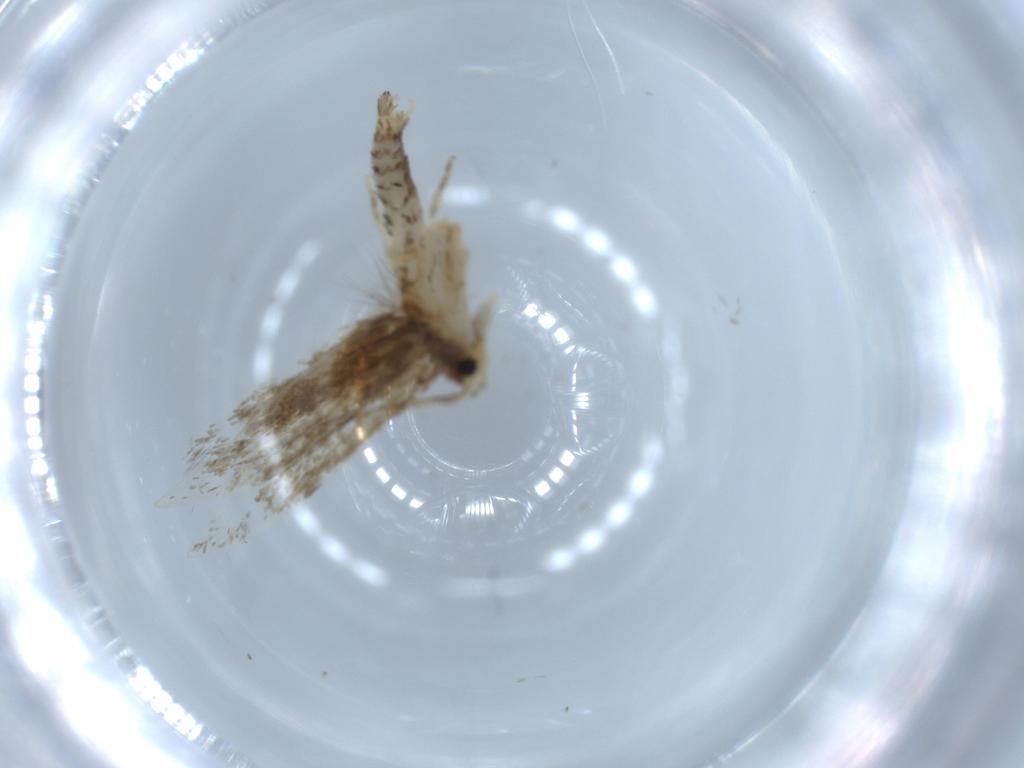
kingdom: Animalia
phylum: Arthropoda
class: Insecta
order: Lepidoptera
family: Tineidae
